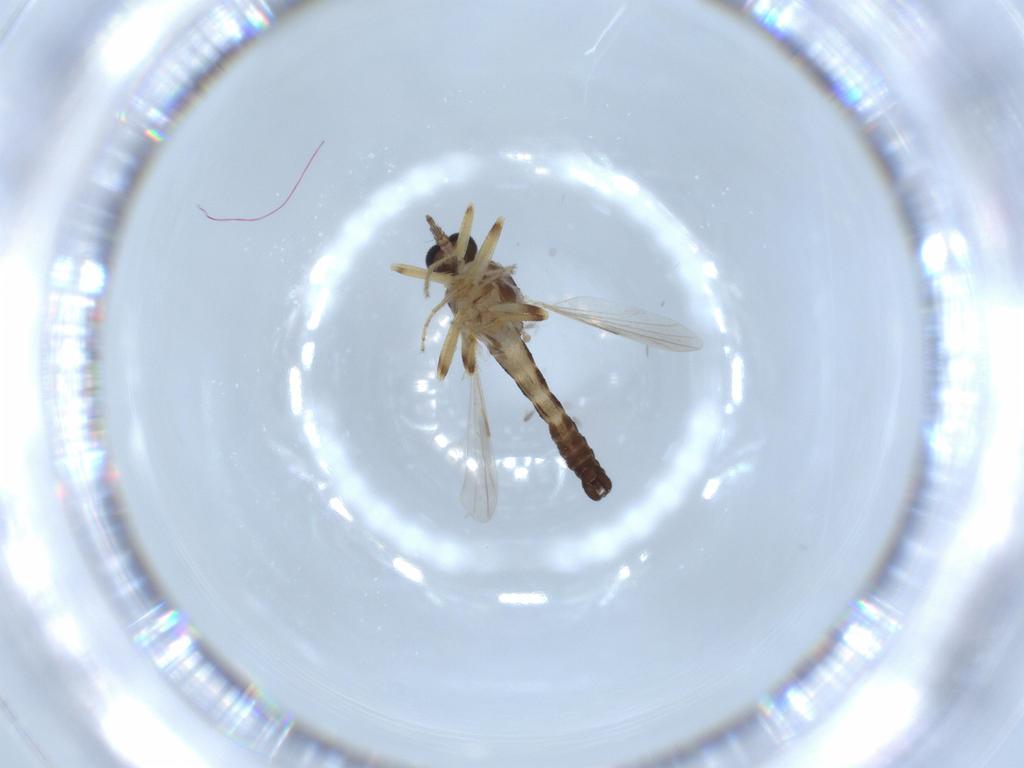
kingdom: Animalia
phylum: Arthropoda
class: Insecta
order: Diptera
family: Ceratopogonidae
